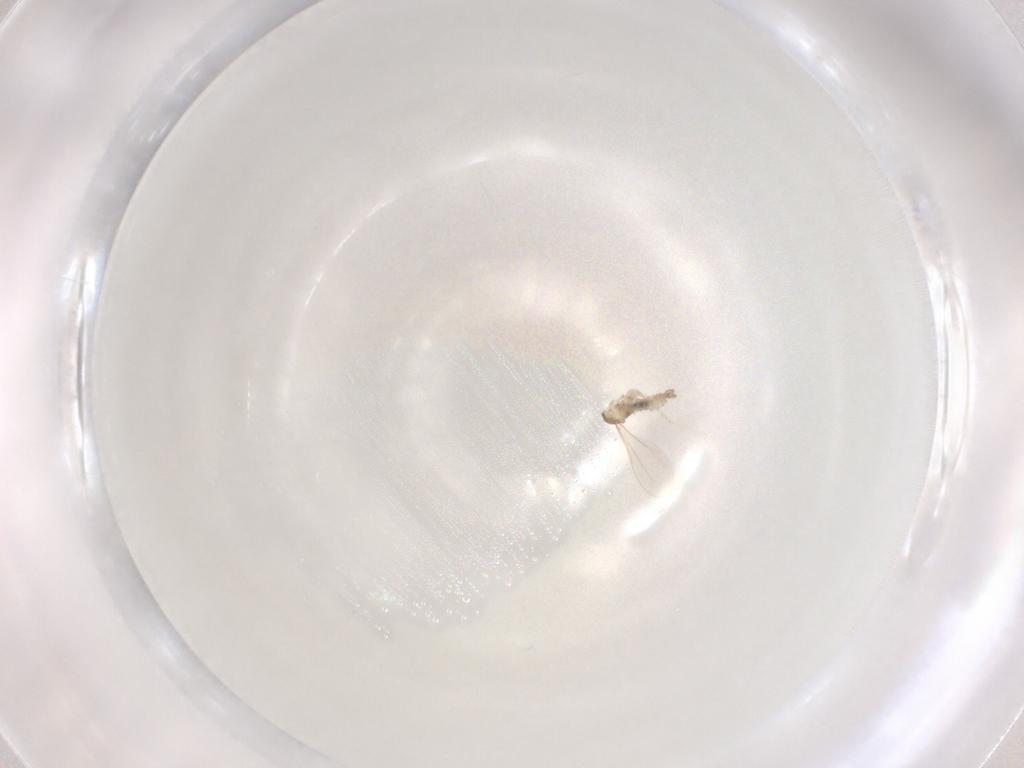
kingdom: Animalia
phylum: Arthropoda
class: Insecta
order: Diptera
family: Cecidomyiidae
